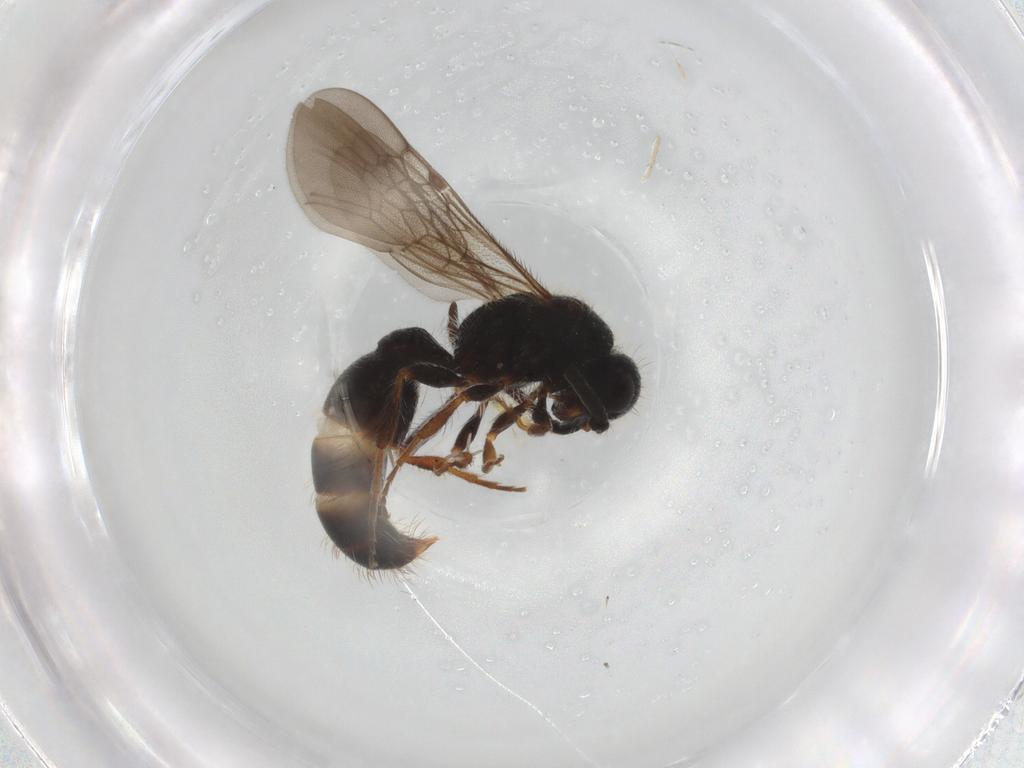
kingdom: Animalia
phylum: Arthropoda
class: Insecta
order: Hymenoptera
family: Mutillidae
